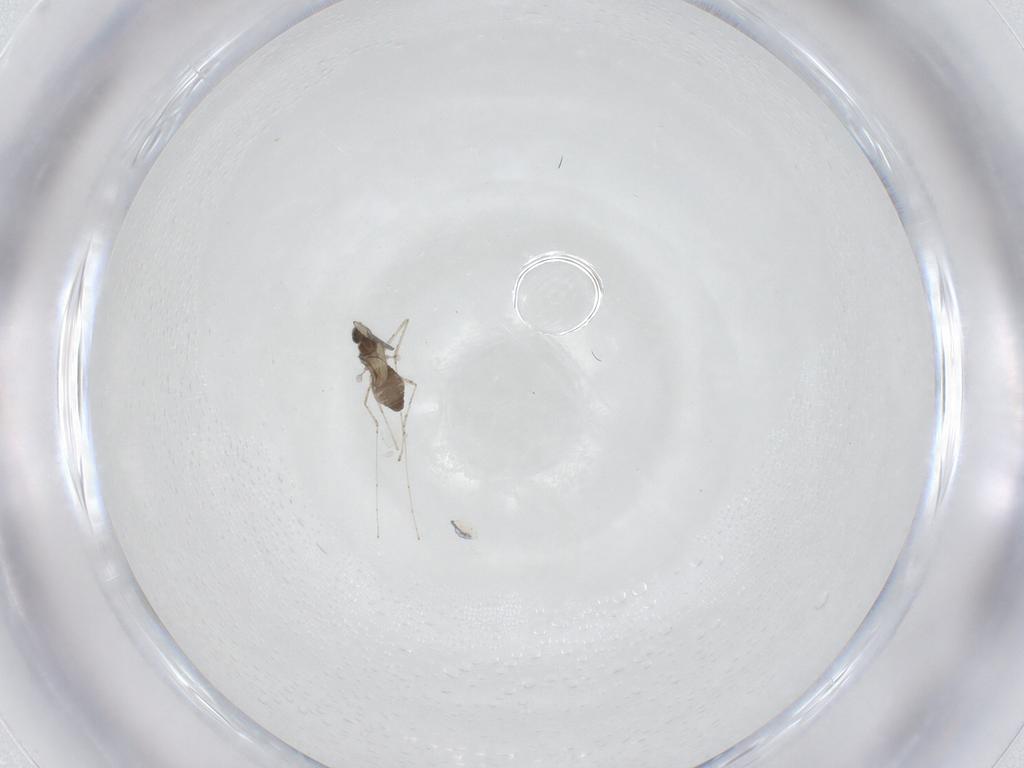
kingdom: Animalia
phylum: Arthropoda
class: Insecta
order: Diptera
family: Cecidomyiidae
